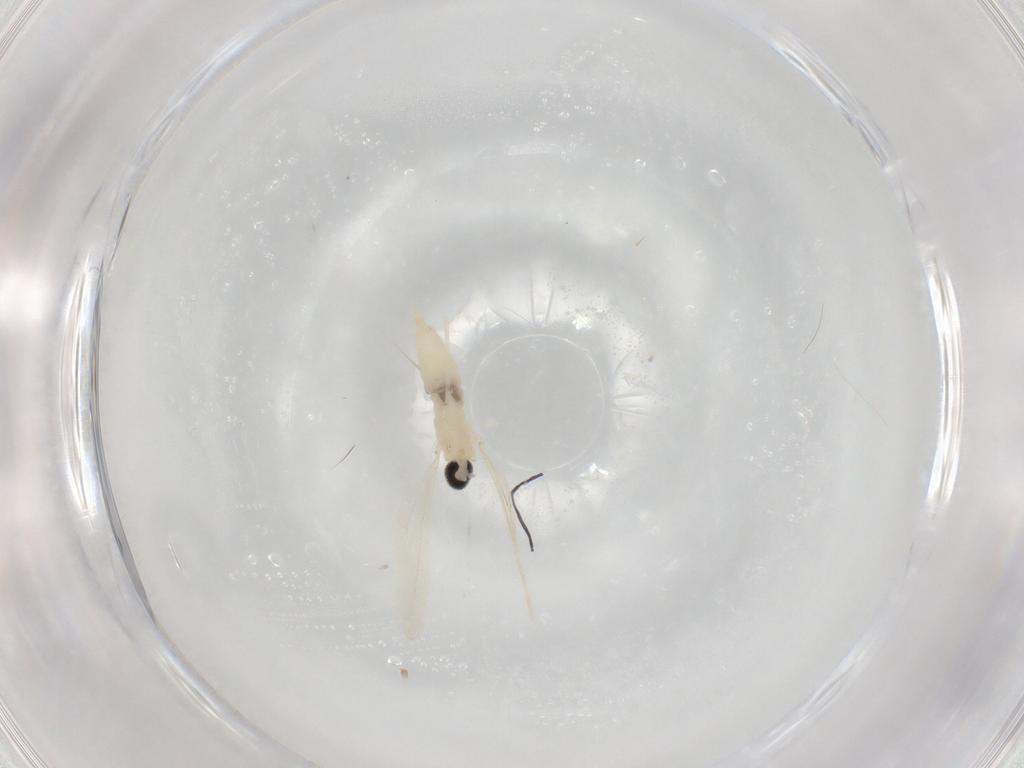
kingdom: Animalia
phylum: Arthropoda
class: Insecta
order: Diptera
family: Cecidomyiidae
